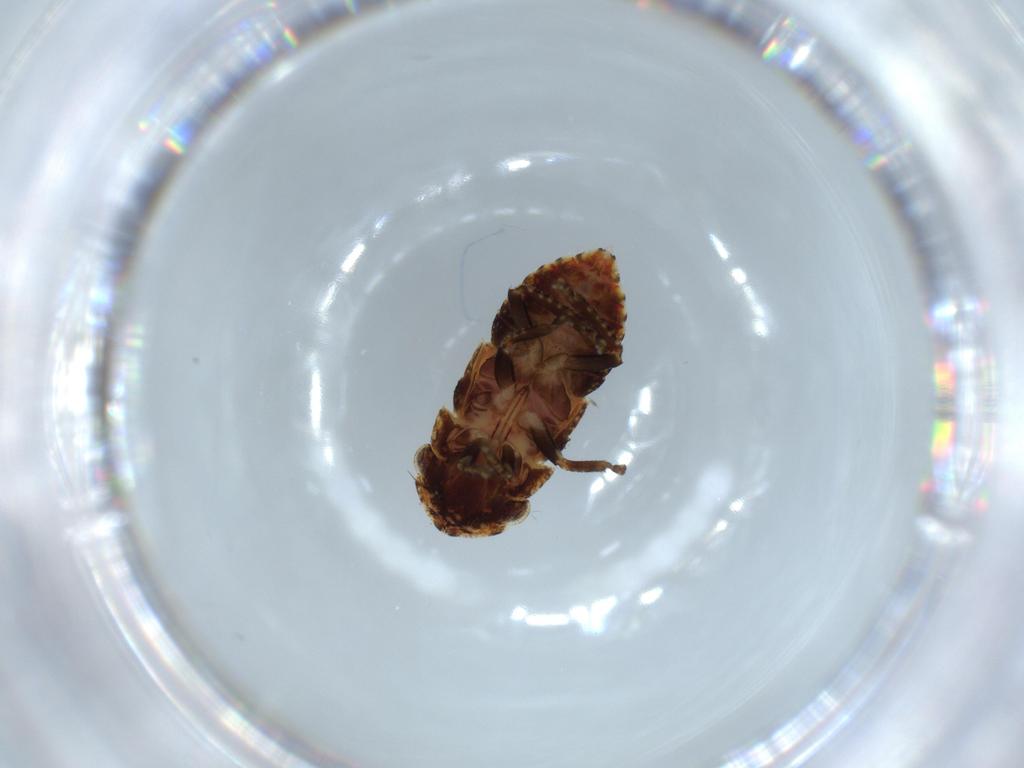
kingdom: Animalia
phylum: Arthropoda
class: Insecta
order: Hemiptera
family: Cicadellidae
